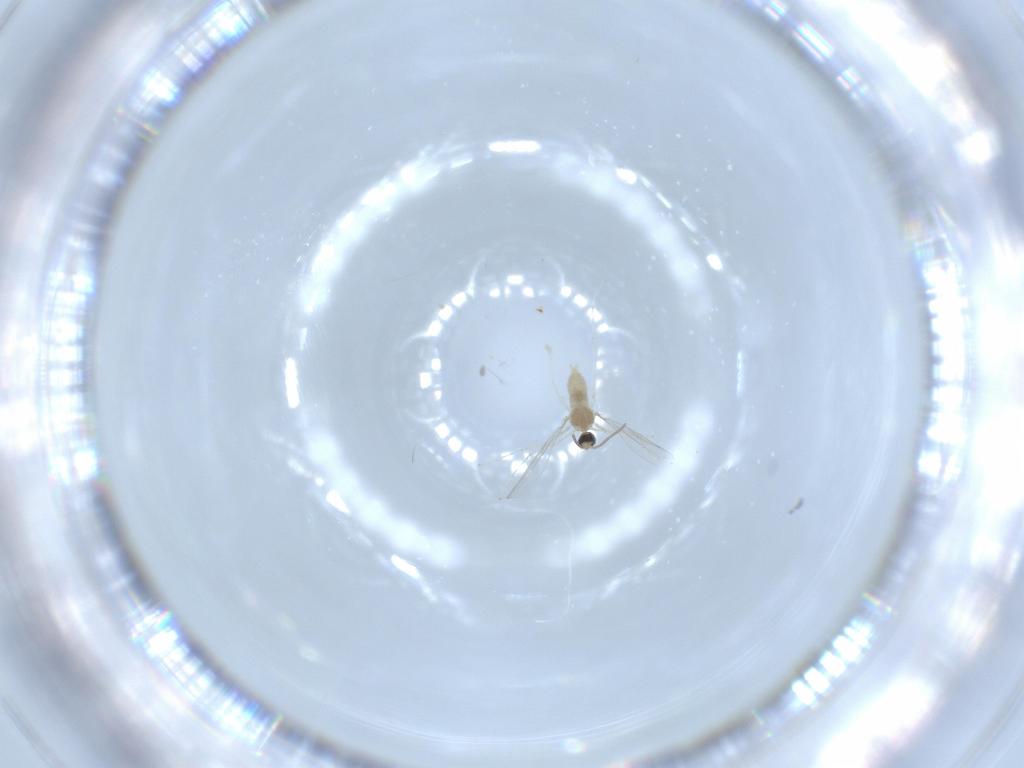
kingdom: Animalia
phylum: Arthropoda
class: Insecta
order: Diptera
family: Cecidomyiidae
